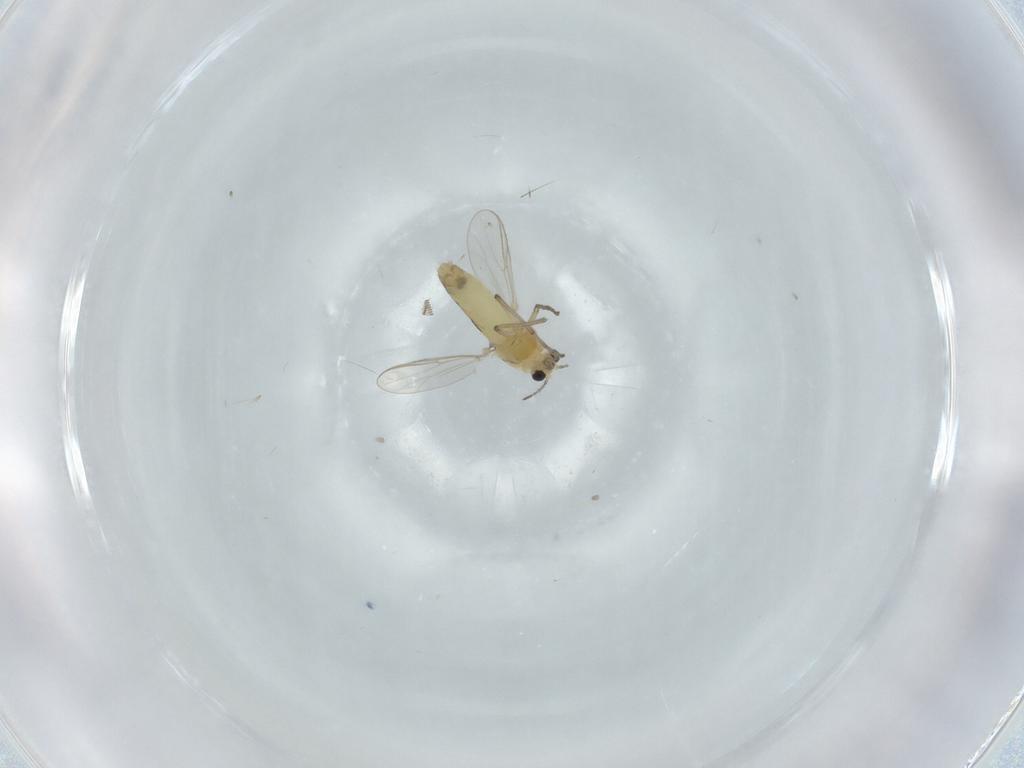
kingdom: Animalia
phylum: Arthropoda
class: Insecta
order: Diptera
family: Chironomidae
